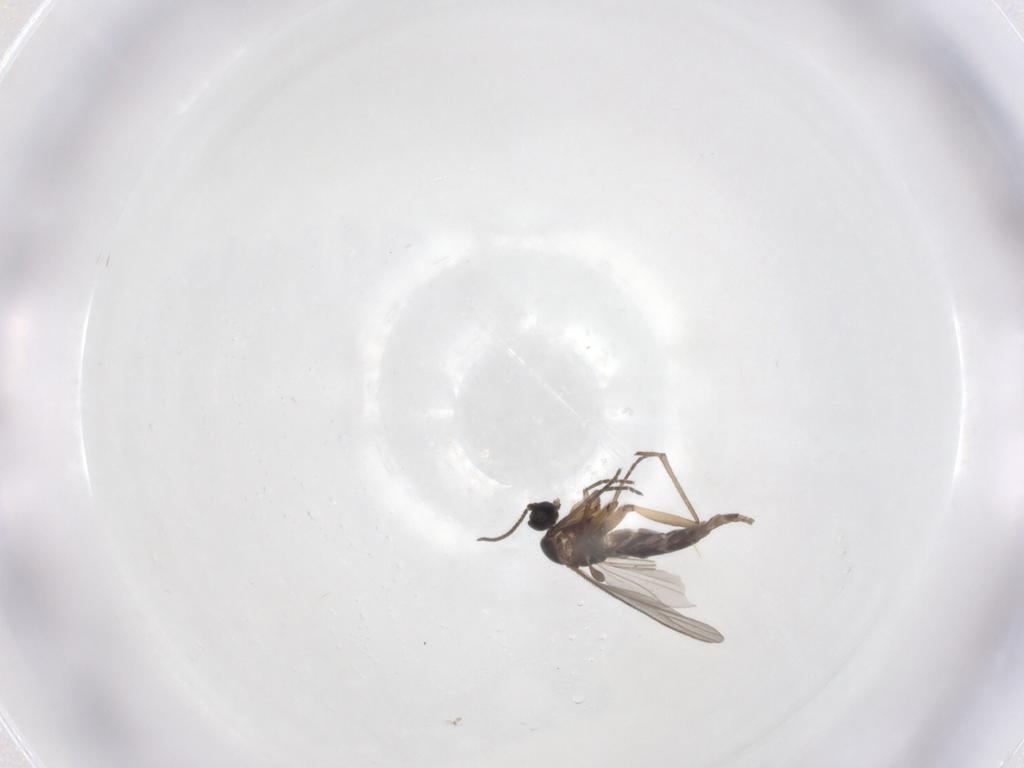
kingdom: Animalia
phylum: Arthropoda
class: Insecta
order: Diptera
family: Sciaridae
